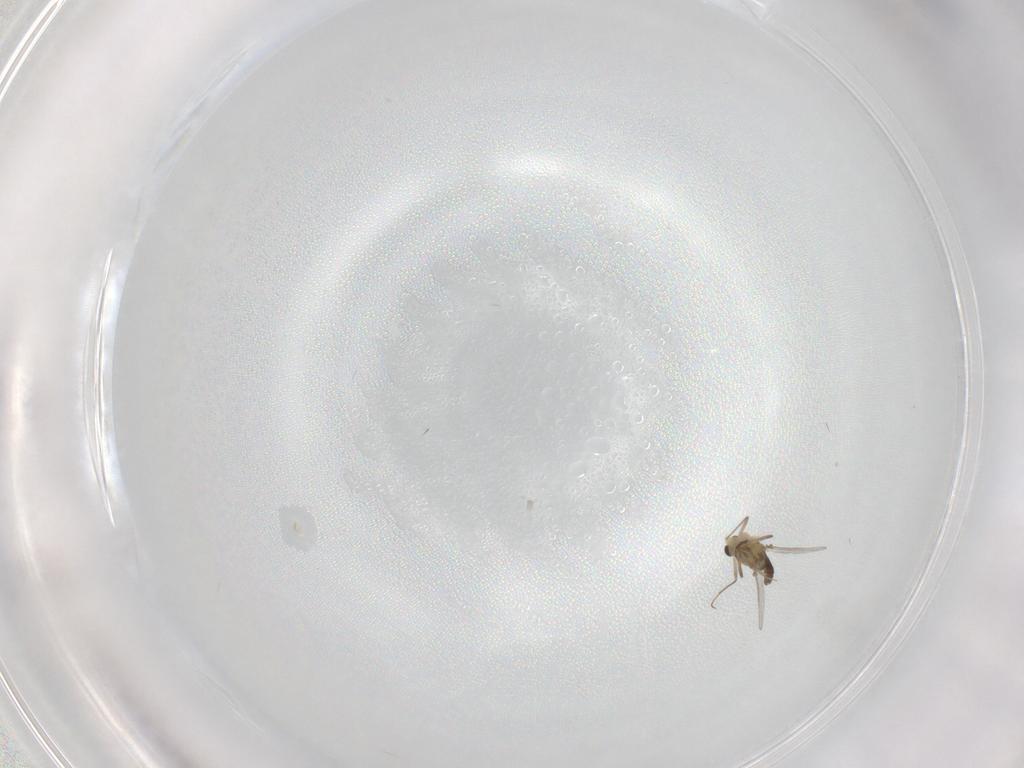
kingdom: Animalia
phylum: Arthropoda
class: Insecta
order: Diptera
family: Chironomidae
